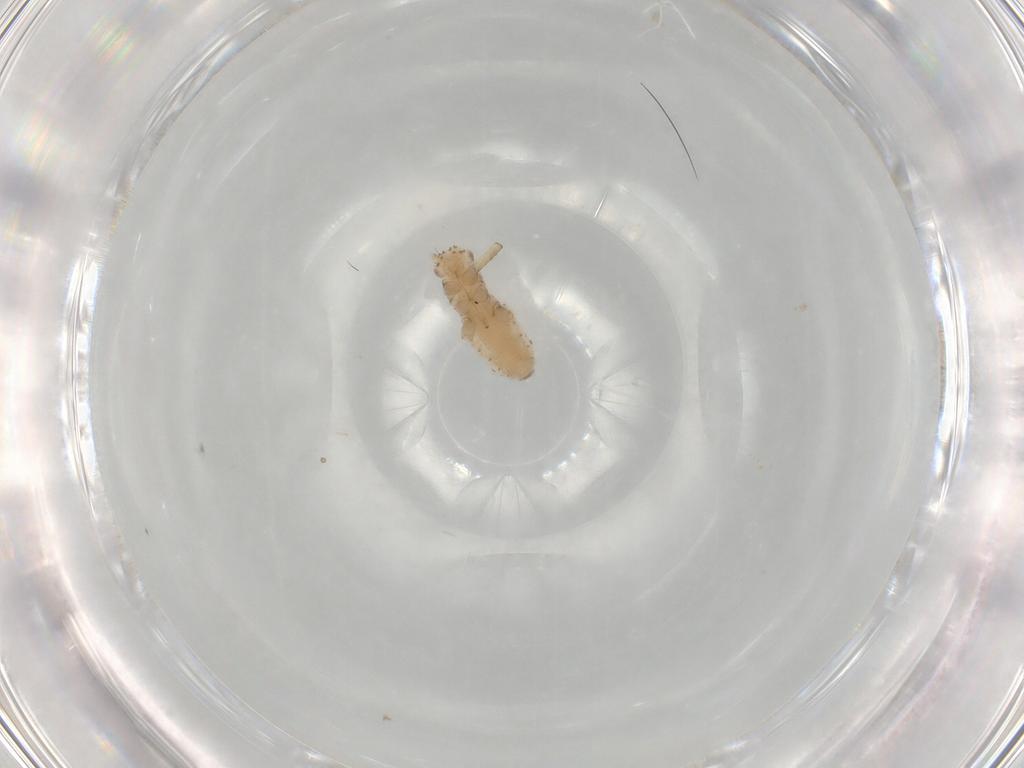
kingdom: Animalia
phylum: Arthropoda
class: Insecta
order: Hemiptera
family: Aphididae
